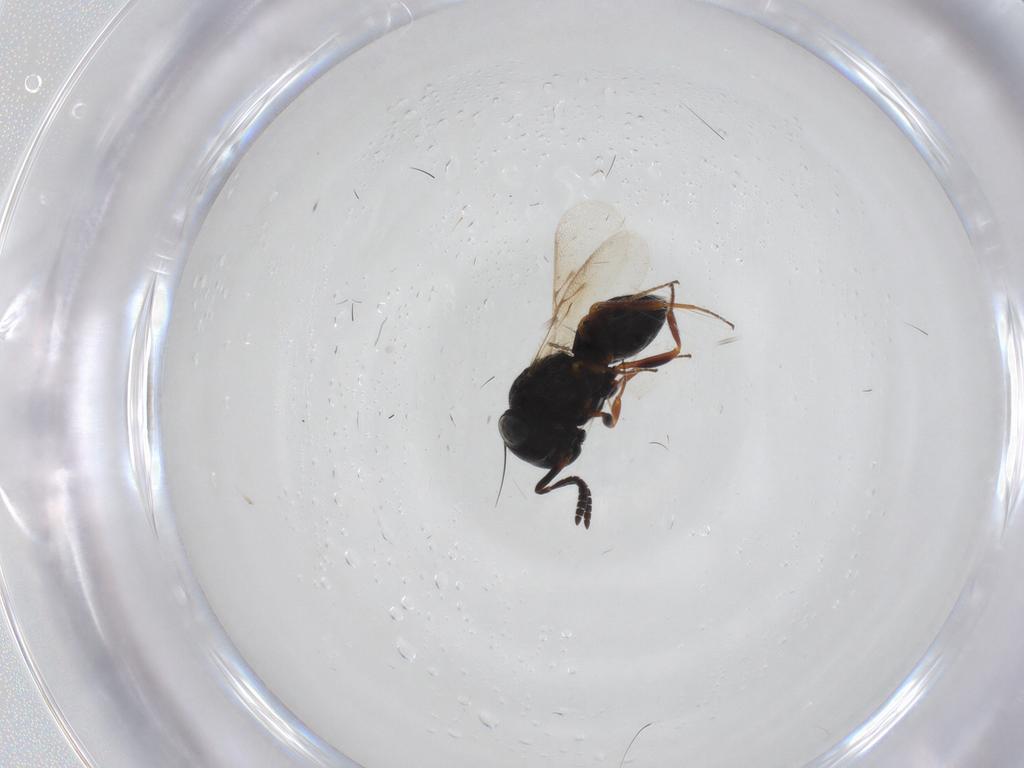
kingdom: Animalia
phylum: Arthropoda
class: Insecta
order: Hymenoptera
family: Scelionidae
